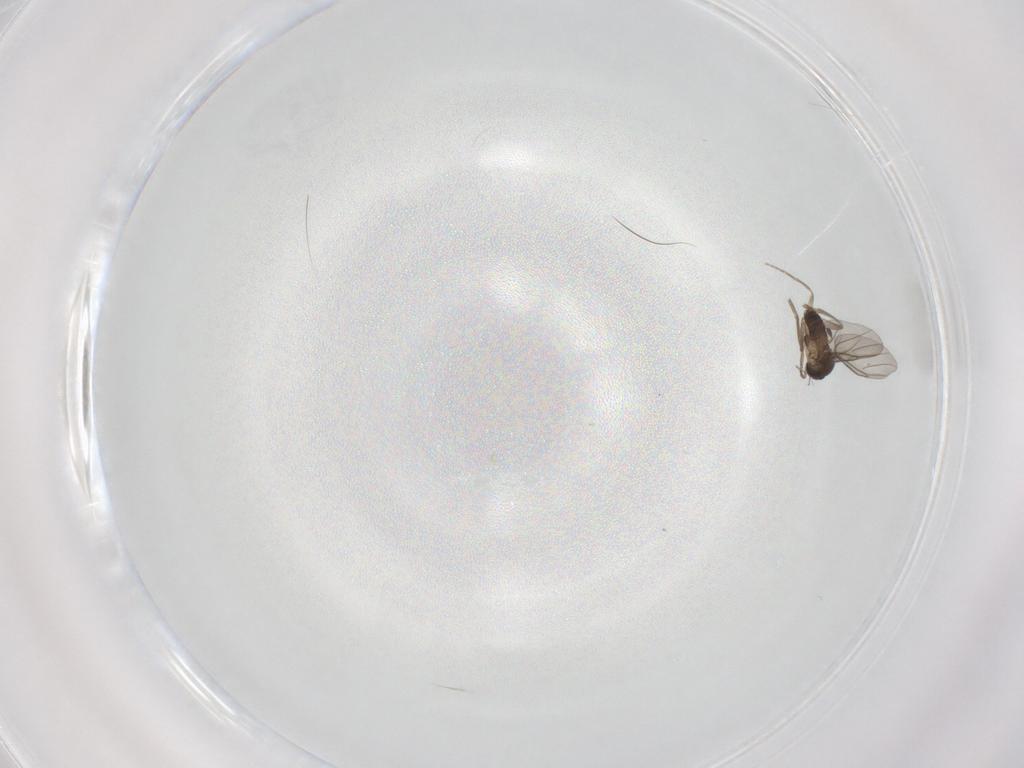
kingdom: Animalia
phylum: Arthropoda
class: Insecta
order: Diptera
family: Phoridae
